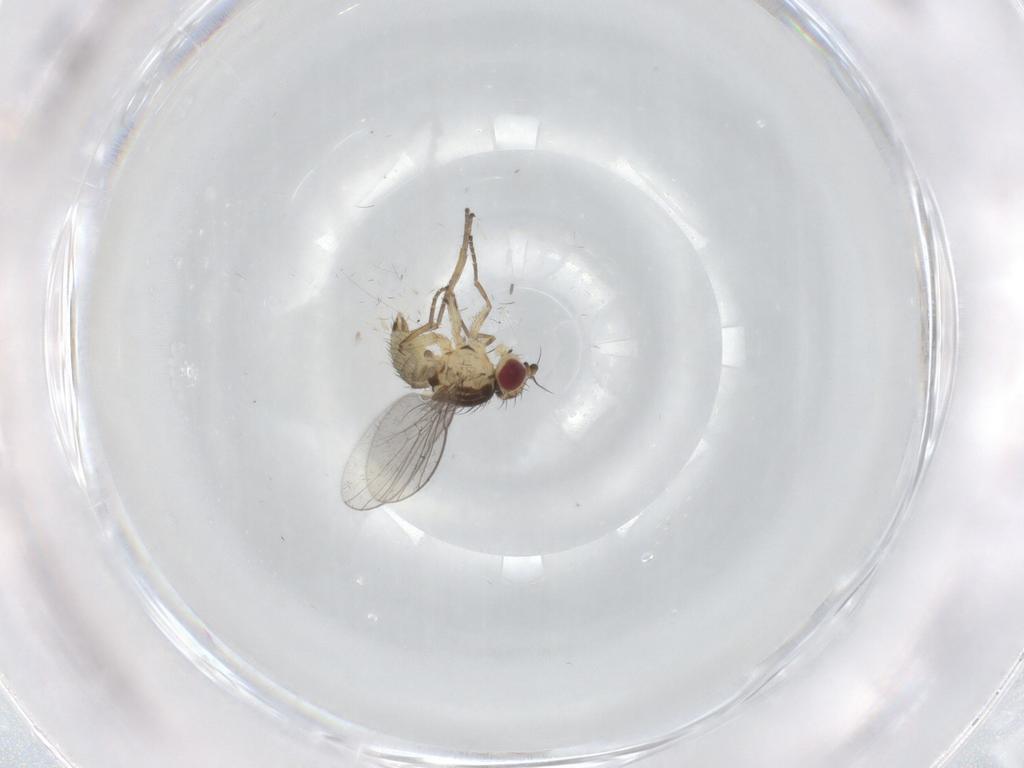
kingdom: Animalia
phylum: Arthropoda
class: Insecta
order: Diptera
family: Agromyzidae
